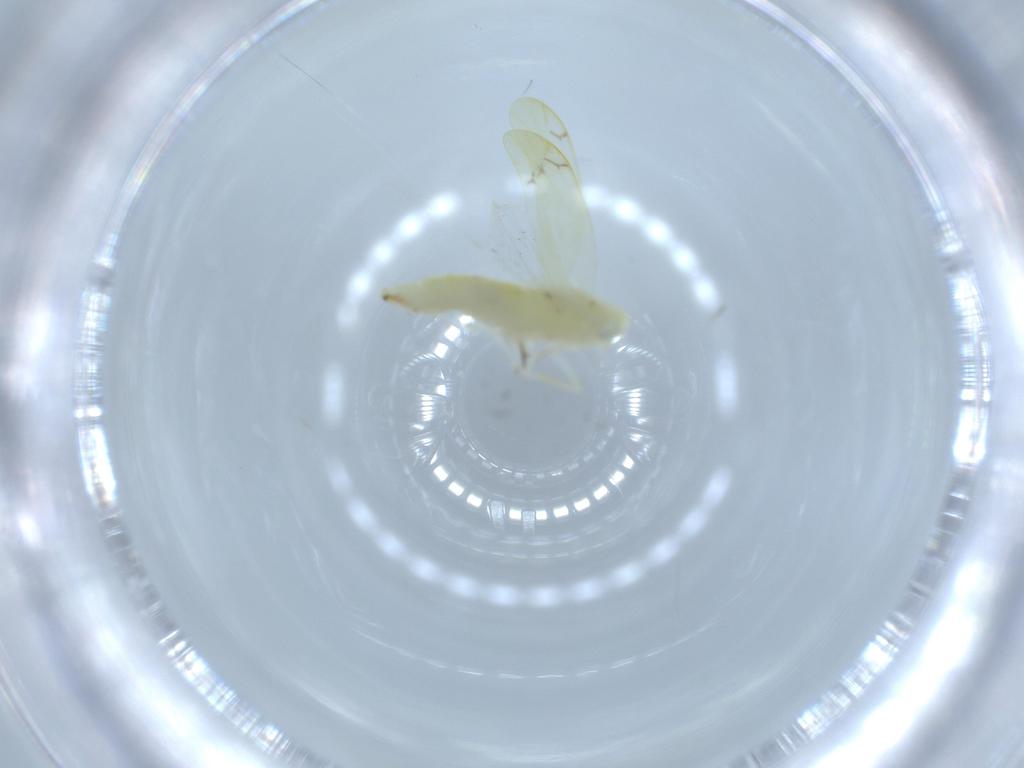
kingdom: Animalia
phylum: Arthropoda
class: Insecta
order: Hemiptera
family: Cicadellidae
